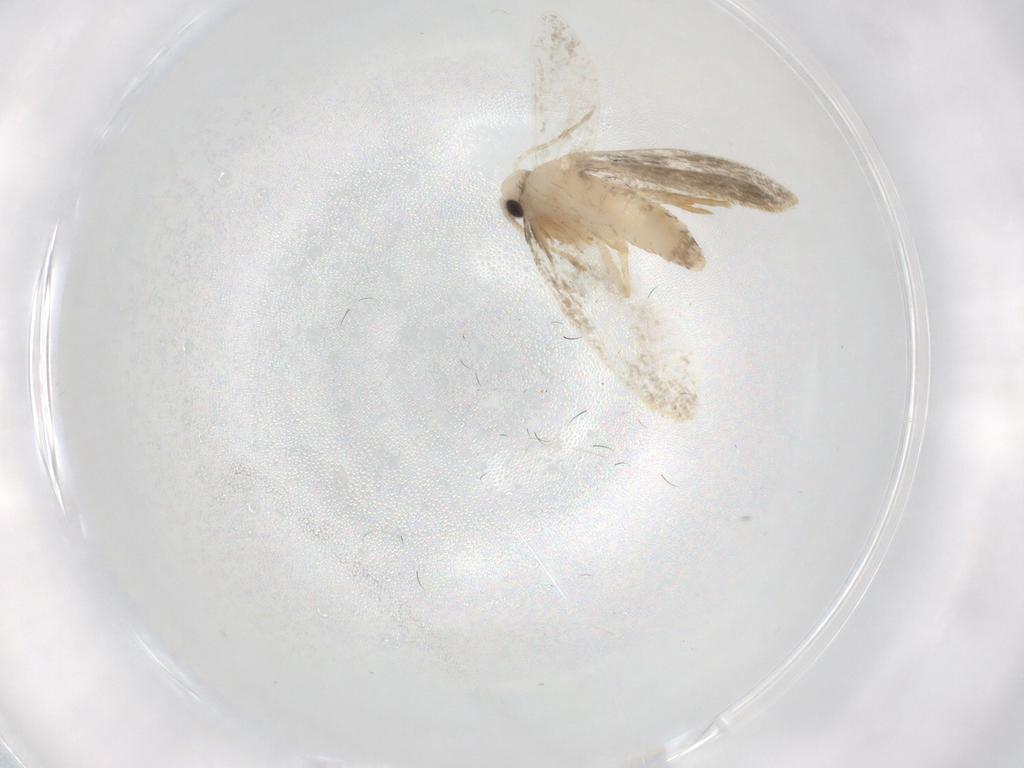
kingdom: Animalia
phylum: Arthropoda
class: Insecta
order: Lepidoptera
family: Psychidae
